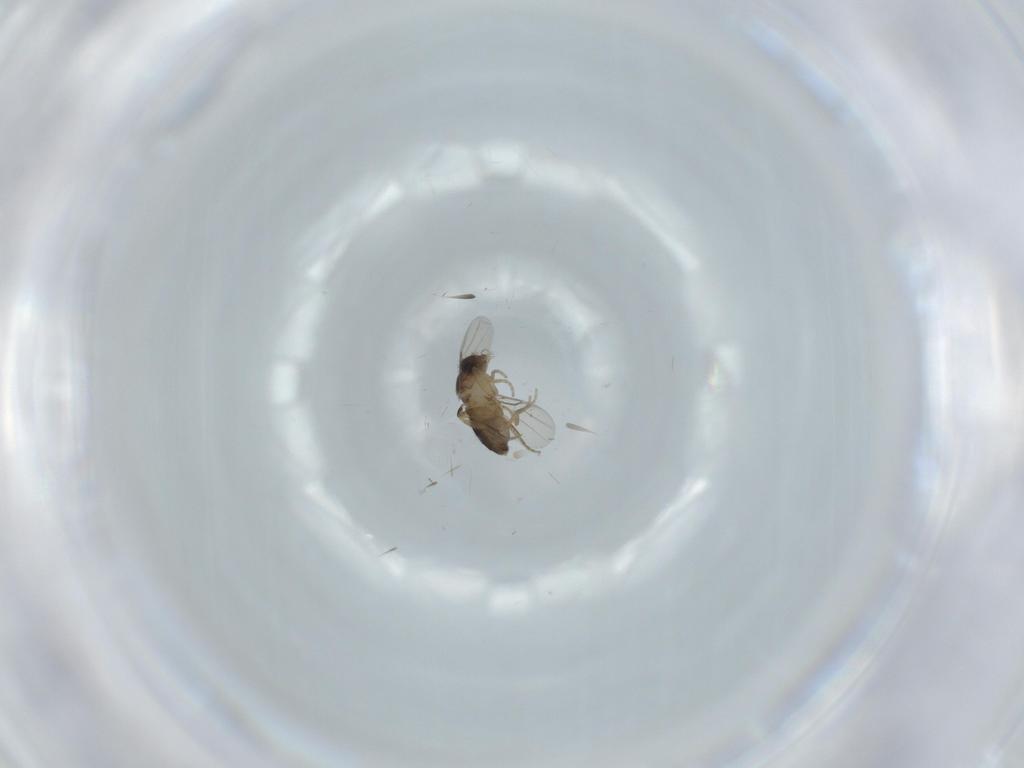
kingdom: Animalia
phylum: Arthropoda
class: Insecta
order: Diptera
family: Phoridae
